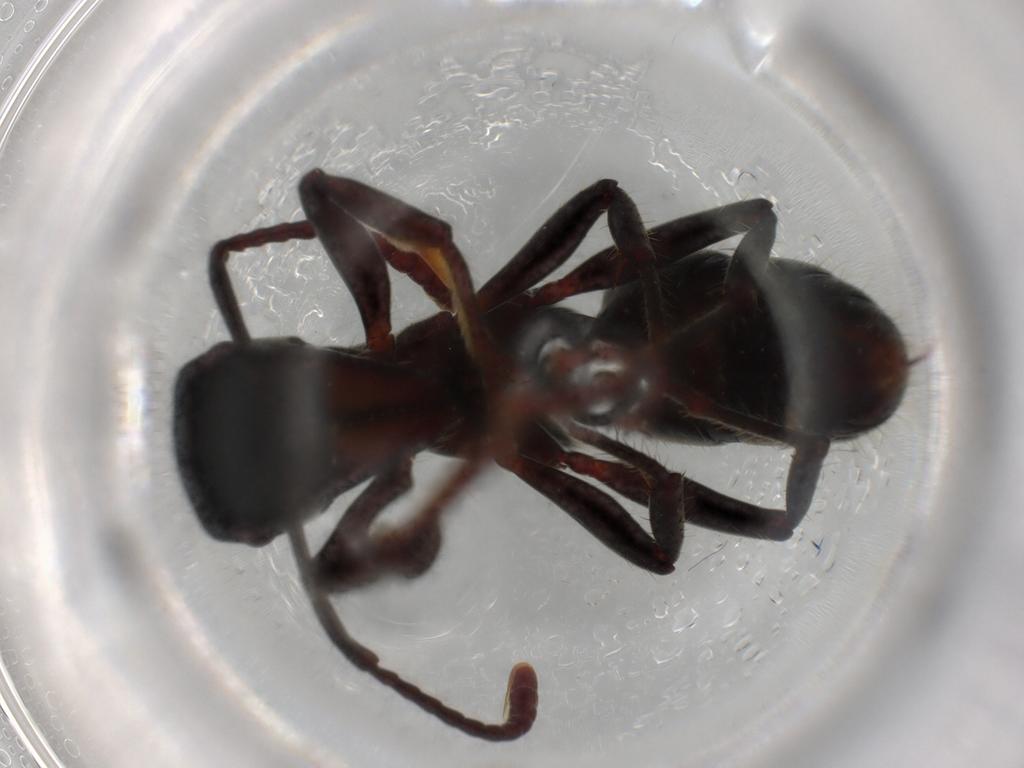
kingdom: Animalia
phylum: Arthropoda
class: Insecta
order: Hymenoptera
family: Formicidae
